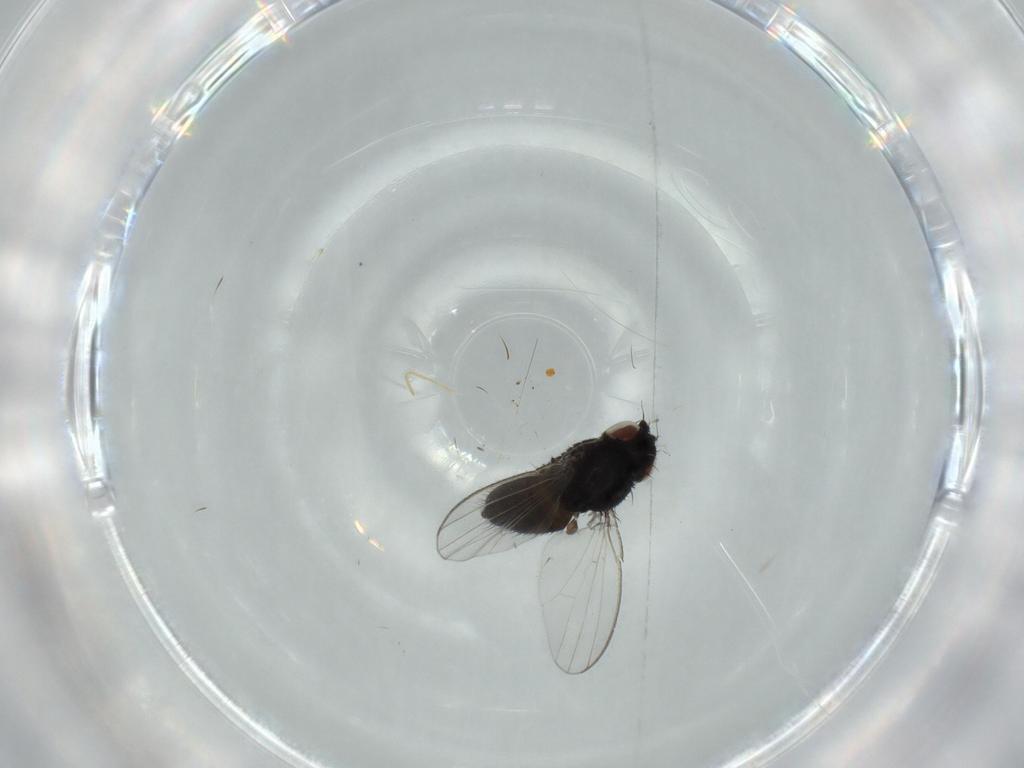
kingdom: Animalia
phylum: Arthropoda
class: Insecta
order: Diptera
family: Milichiidae
